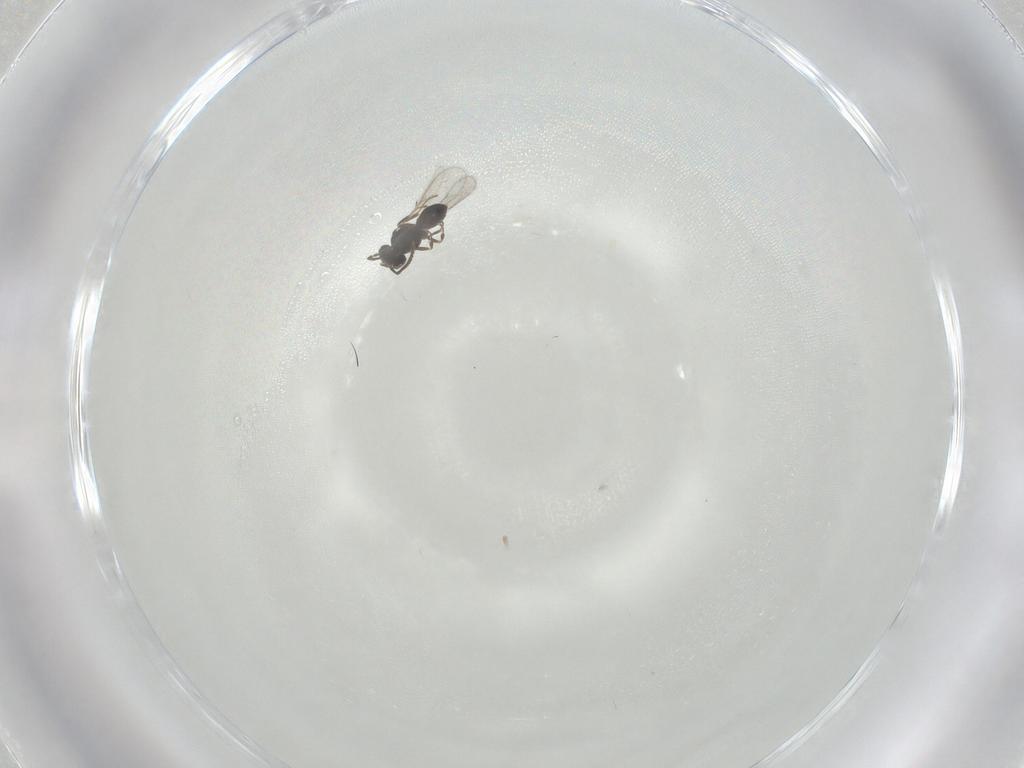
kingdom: Animalia
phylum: Arthropoda
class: Insecta
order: Hymenoptera
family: Scelionidae
